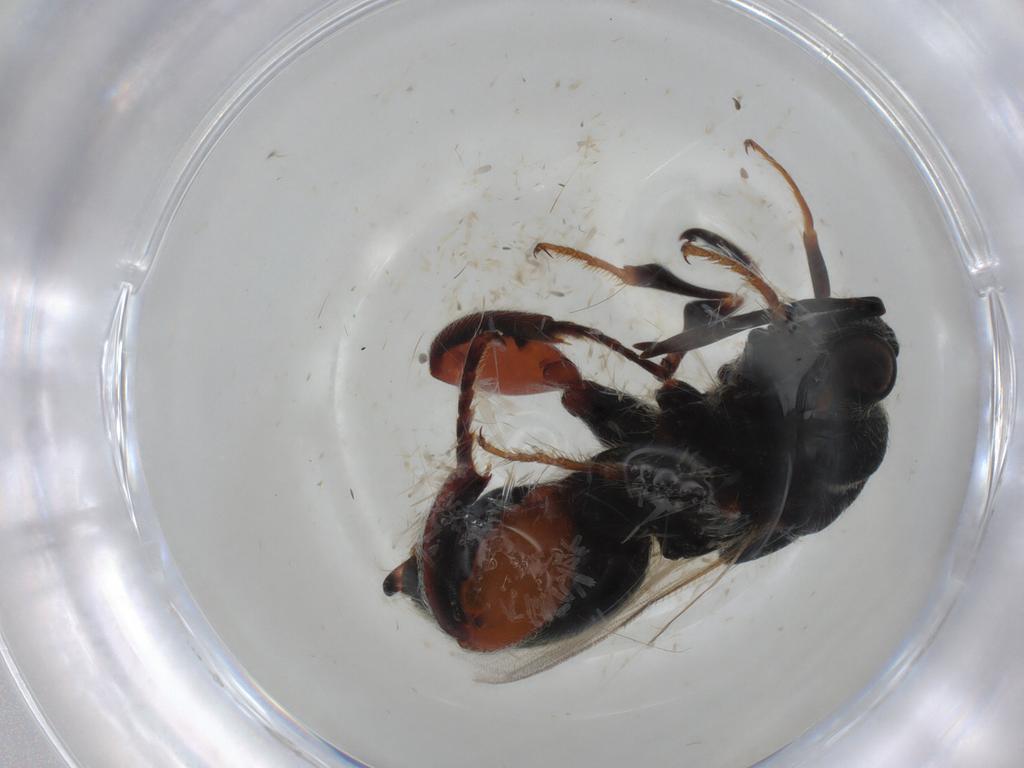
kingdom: Animalia
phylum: Arthropoda
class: Insecta
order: Hymenoptera
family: Chalcididae
